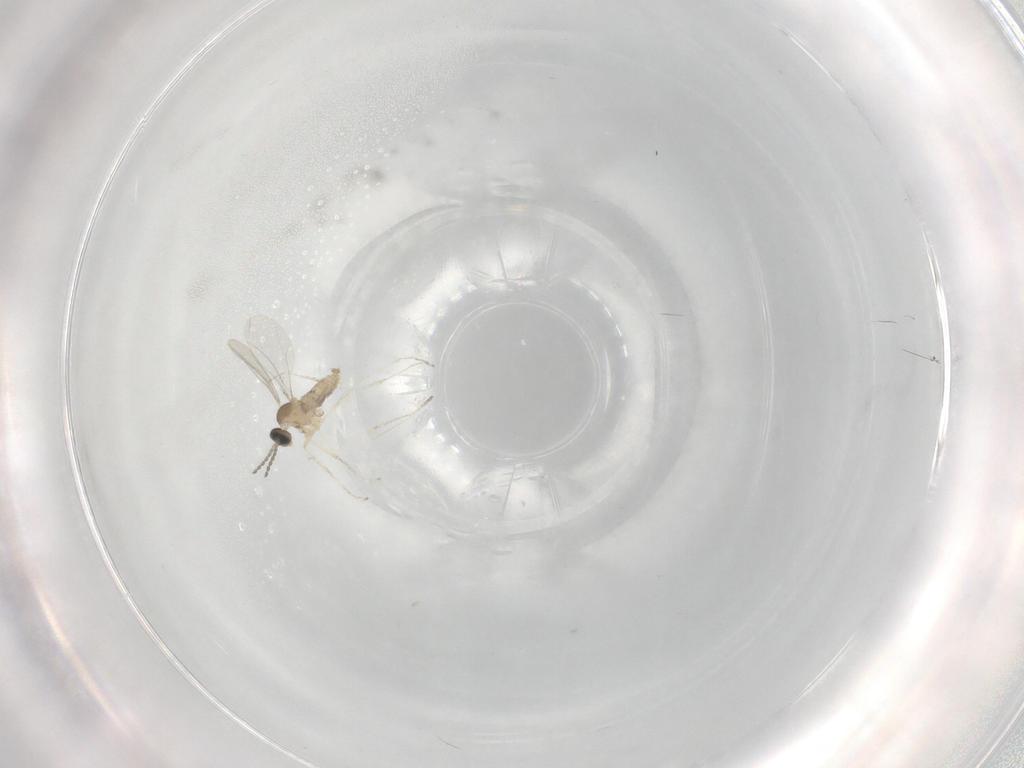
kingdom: Animalia
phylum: Arthropoda
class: Insecta
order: Diptera
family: Cecidomyiidae
